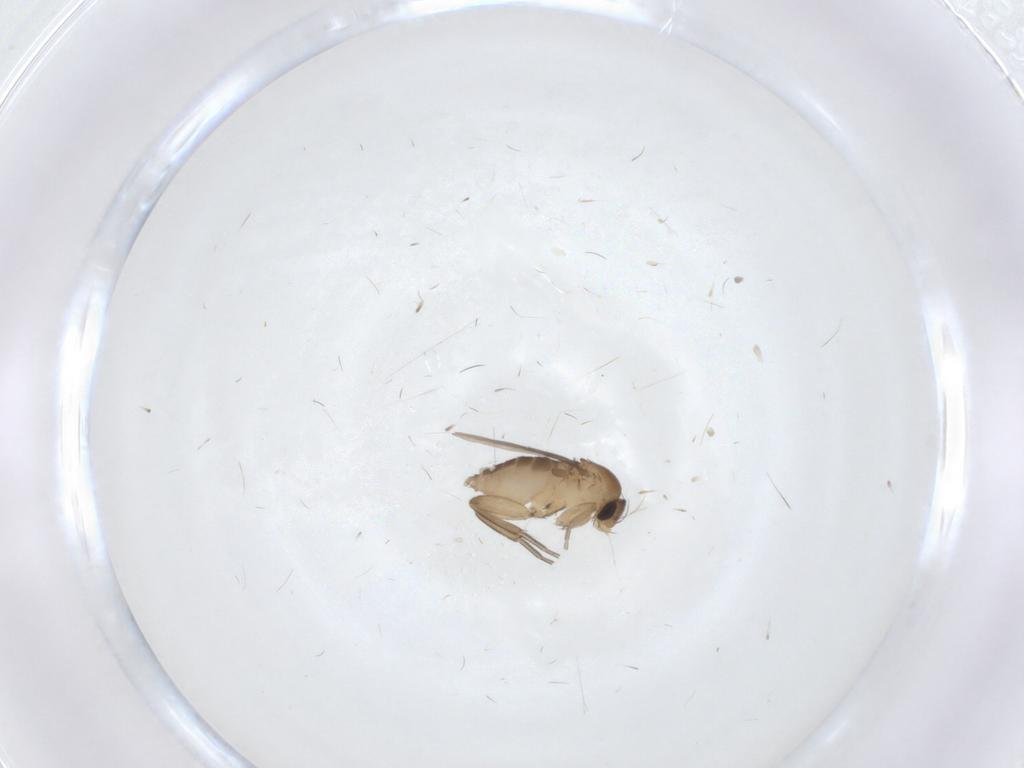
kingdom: Animalia
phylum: Arthropoda
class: Insecta
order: Diptera
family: Phoridae
